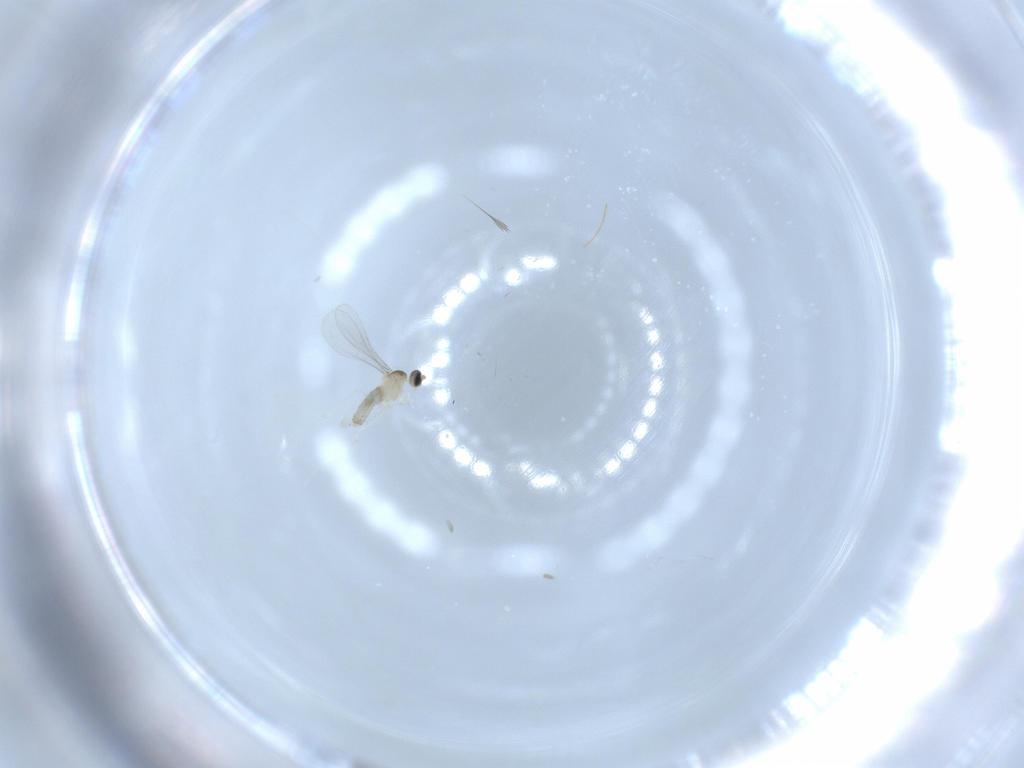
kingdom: Animalia
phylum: Arthropoda
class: Insecta
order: Diptera
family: Cecidomyiidae
